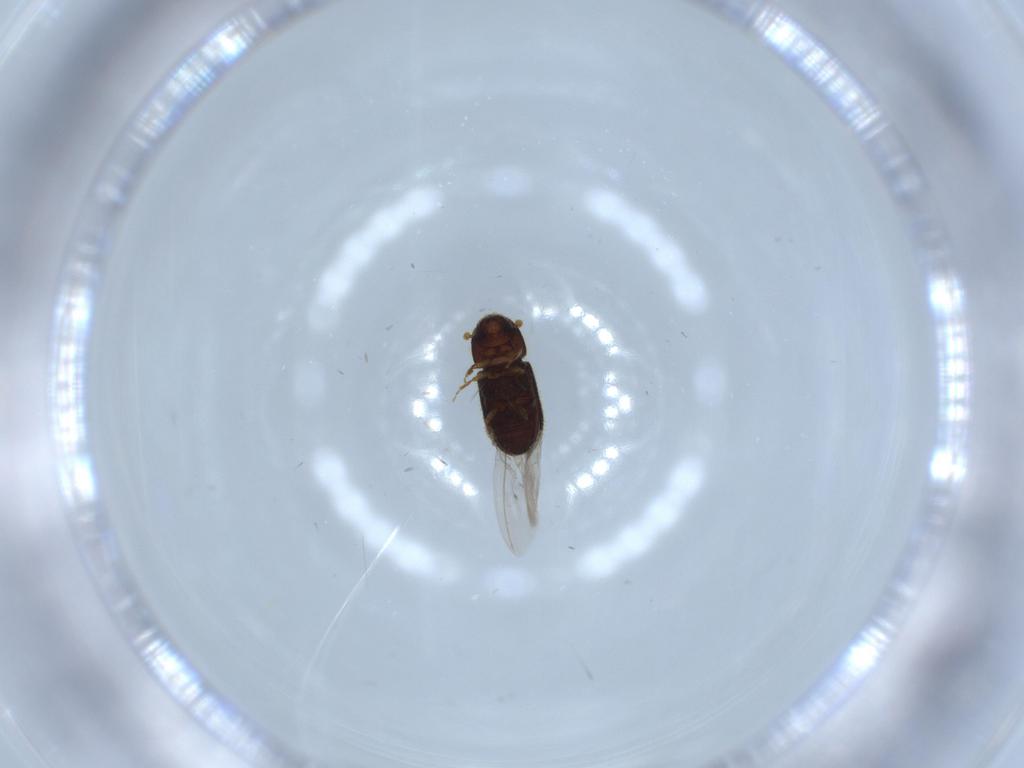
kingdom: Animalia
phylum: Arthropoda
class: Insecta
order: Coleoptera
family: Curculionidae
